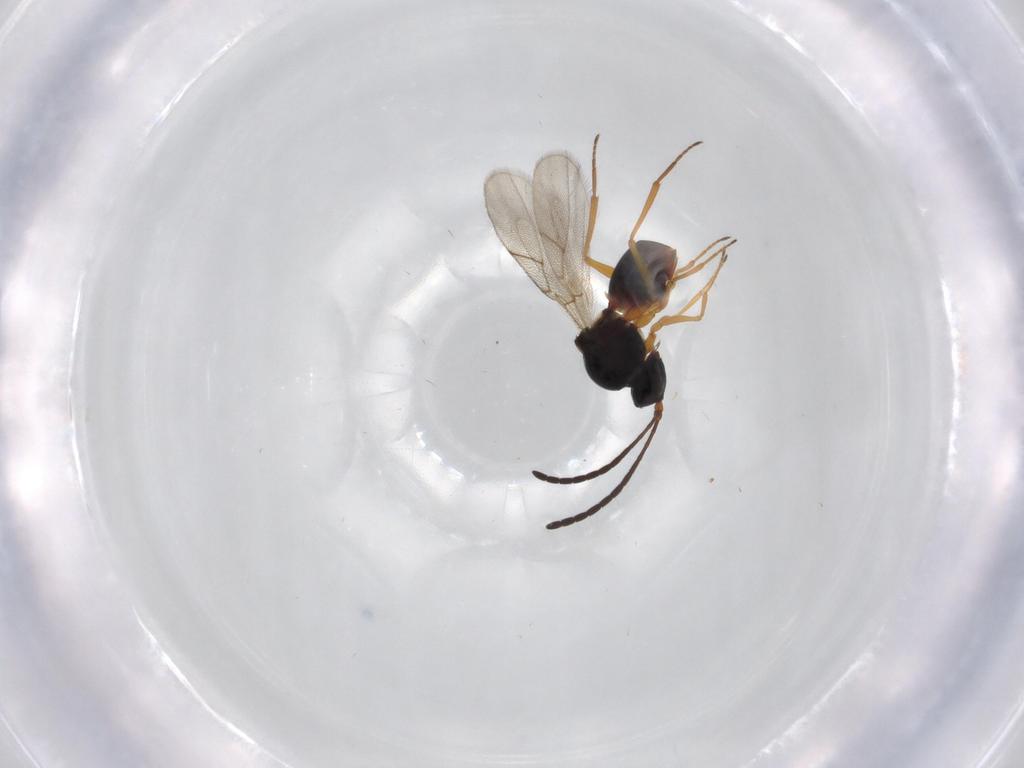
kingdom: Animalia
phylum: Arthropoda
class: Insecta
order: Hymenoptera
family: Figitidae
